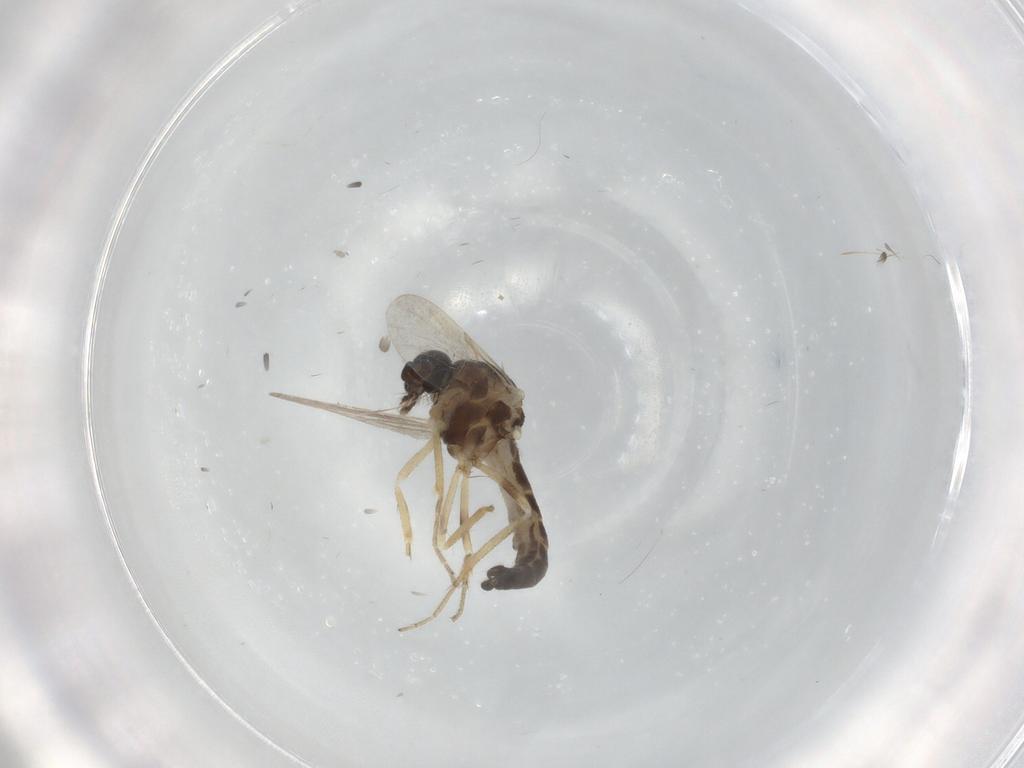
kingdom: Animalia
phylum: Arthropoda
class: Insecta
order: Diptera
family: Ceratopogonidae
